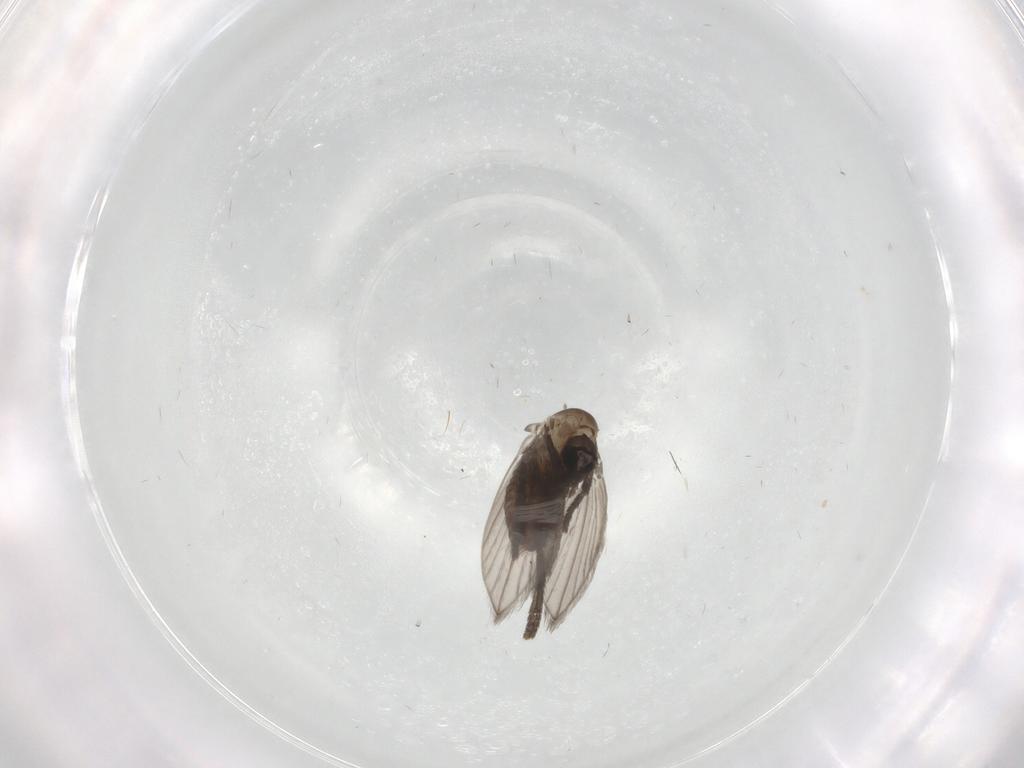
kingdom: Animalia
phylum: Arthropoda
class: Insecta
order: Diptera
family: Psychodidae
